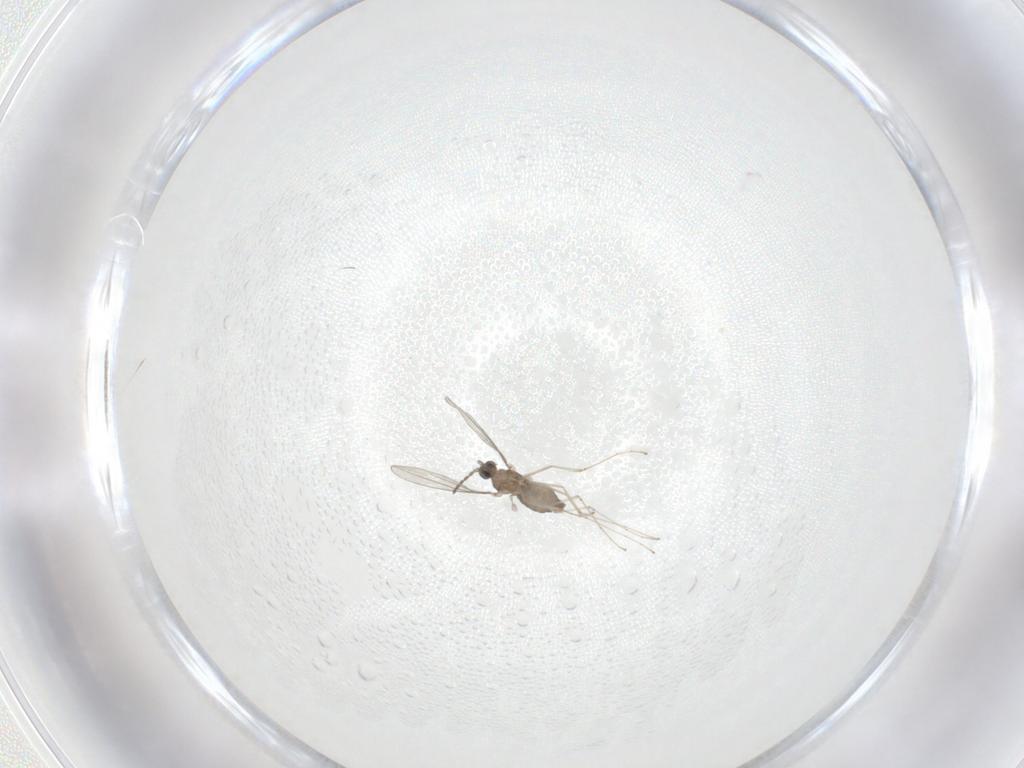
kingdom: Animalia
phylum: Arthropoda
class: Insecta
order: Diptera
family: Cecidomyiidae
